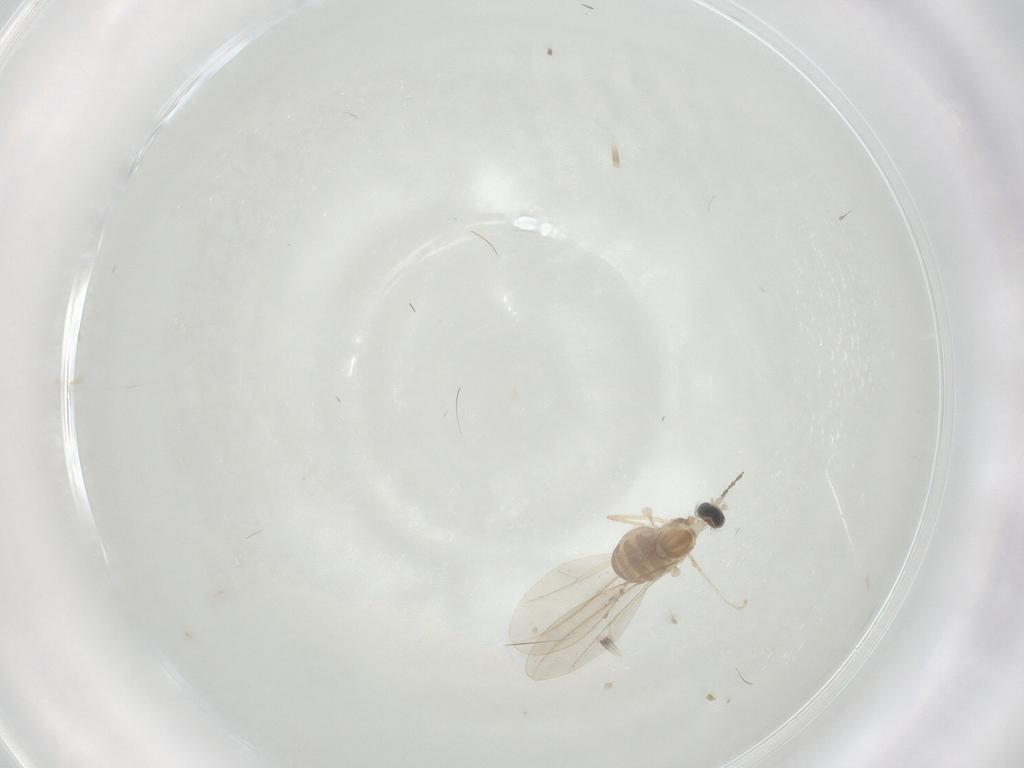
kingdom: Animalia
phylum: Arthropoda
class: Insecta
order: Diptera
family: Cecidomyiidae
